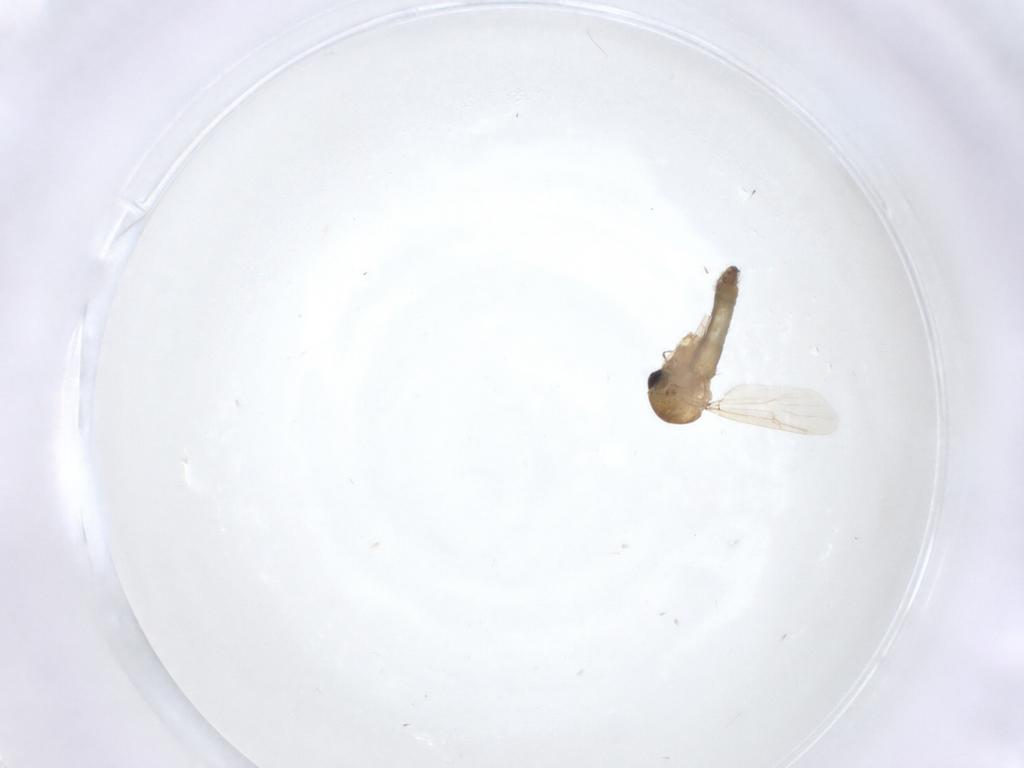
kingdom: Animalia
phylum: Arthropoda
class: Insecta
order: Diptera
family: Ceratopogonidae
